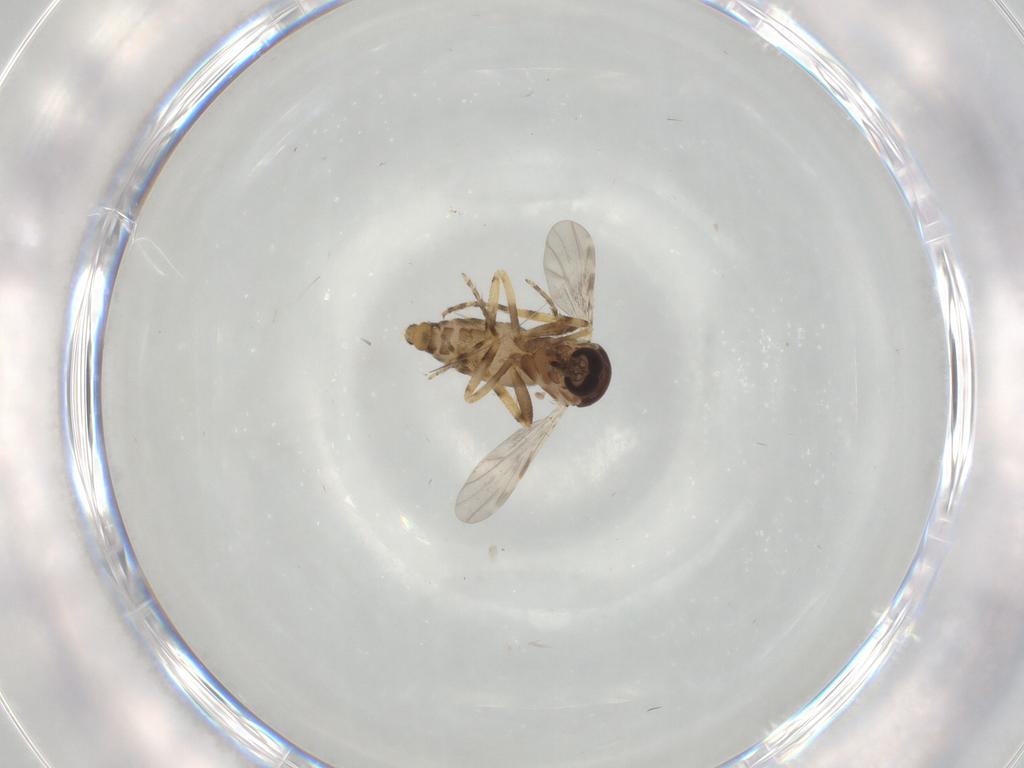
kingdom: Animalia
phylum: Arthropoda
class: Insecta
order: Diptera
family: Ceratopogonidae
